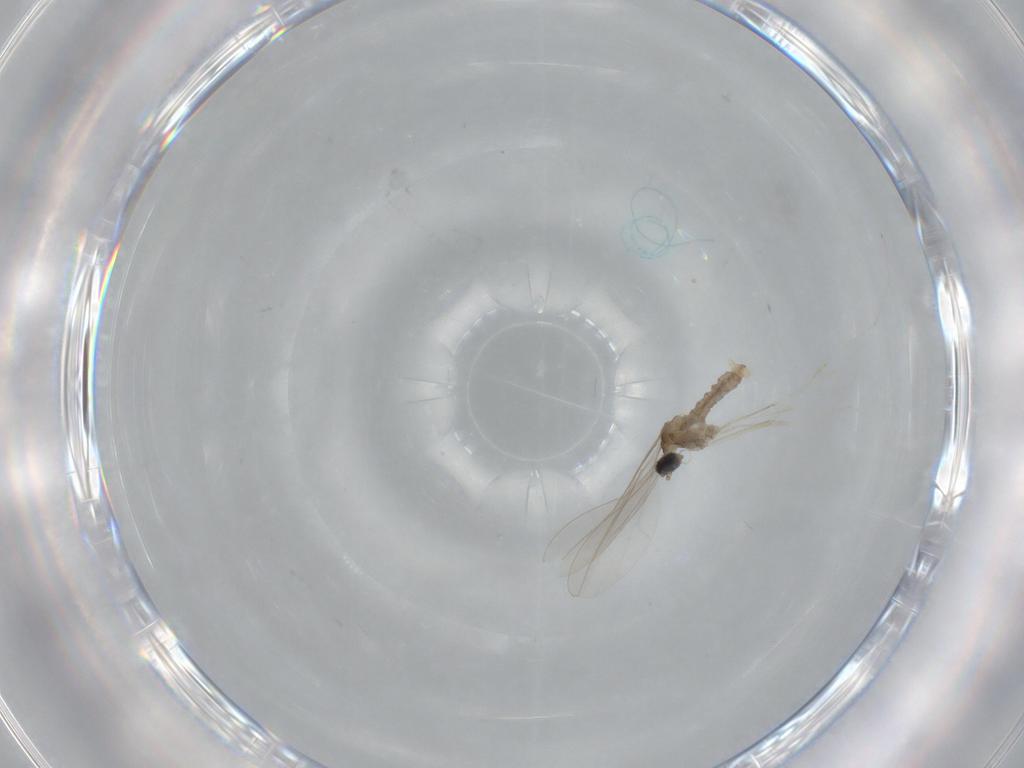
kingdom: Animalia
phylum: Arthropoda
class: Insecta
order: Diptera
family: Cecidomyiidae
